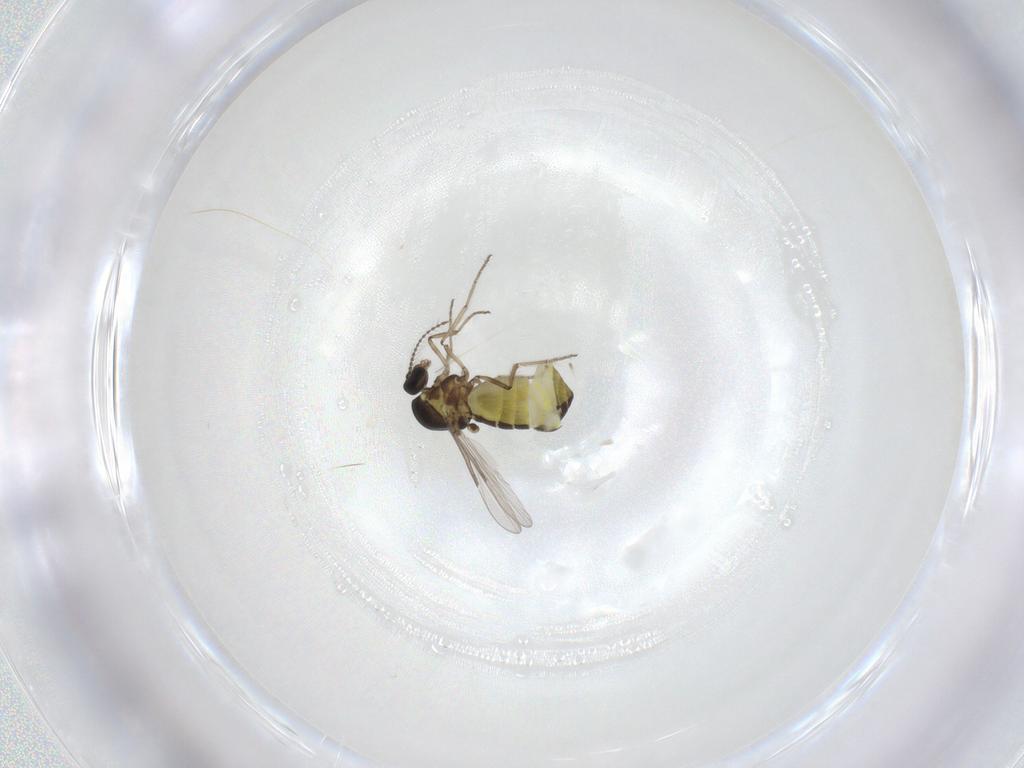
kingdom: Animalia
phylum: Arthropoda
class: Insecta
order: Diptera
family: Ceratopogonidae
